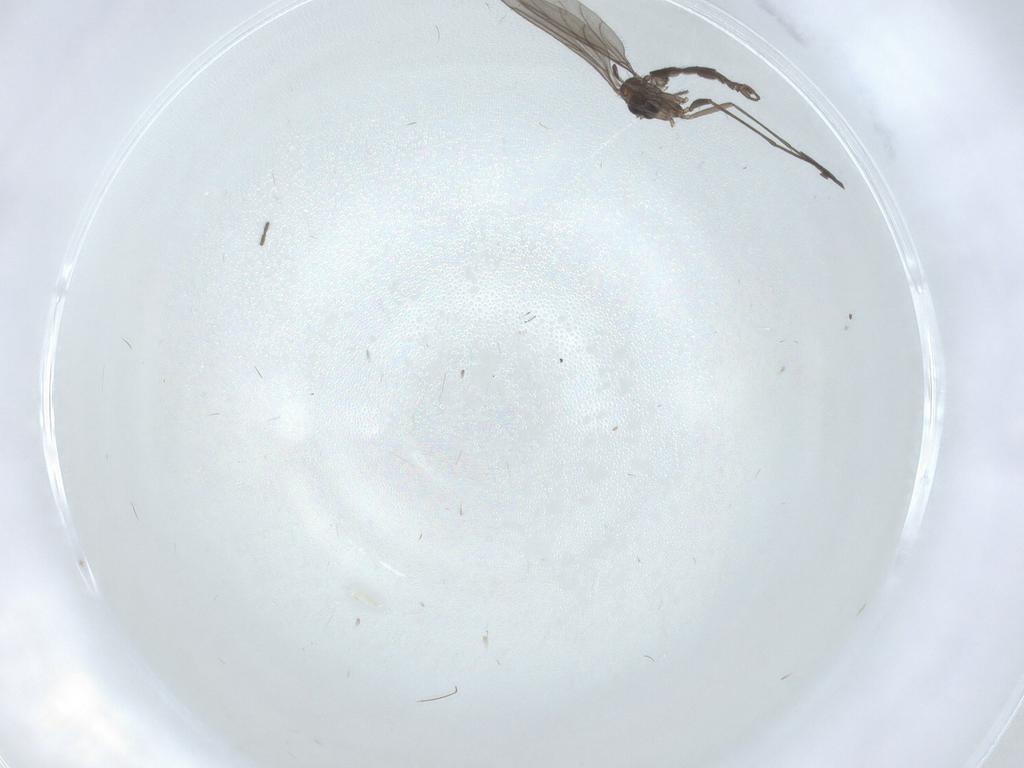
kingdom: Animalia
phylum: Arthropoda
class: Insecta
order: Diptera
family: Sciaridae
